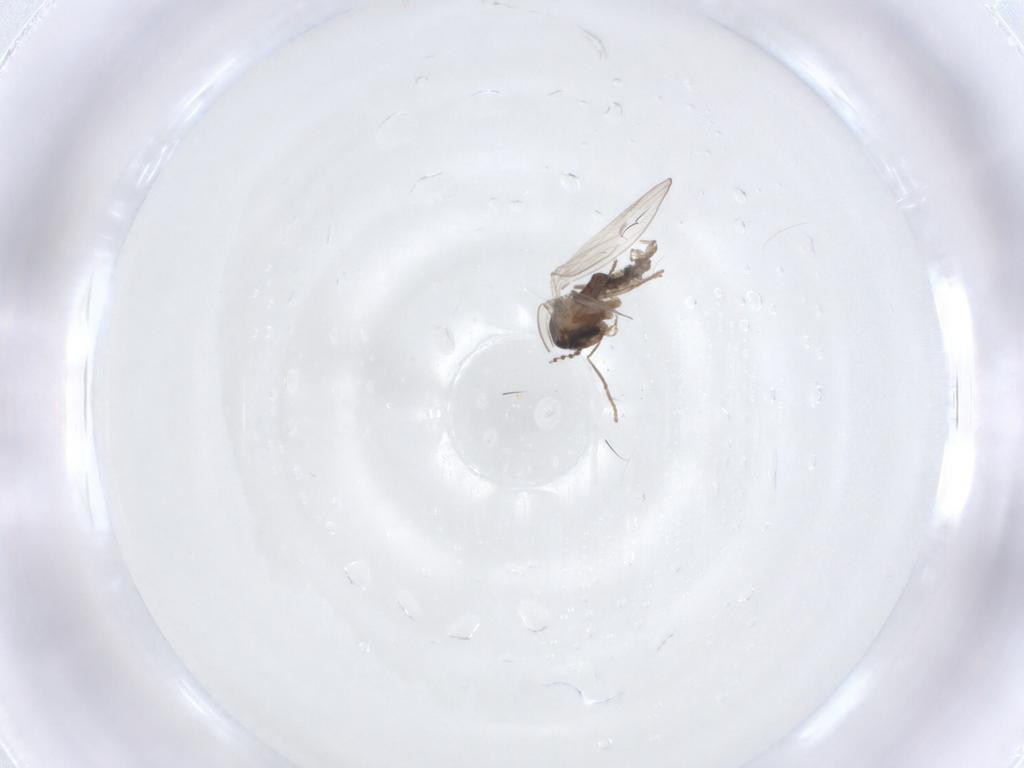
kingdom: Animalia
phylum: Arthropoda
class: Insecta
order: Diptera
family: Psychodidae
